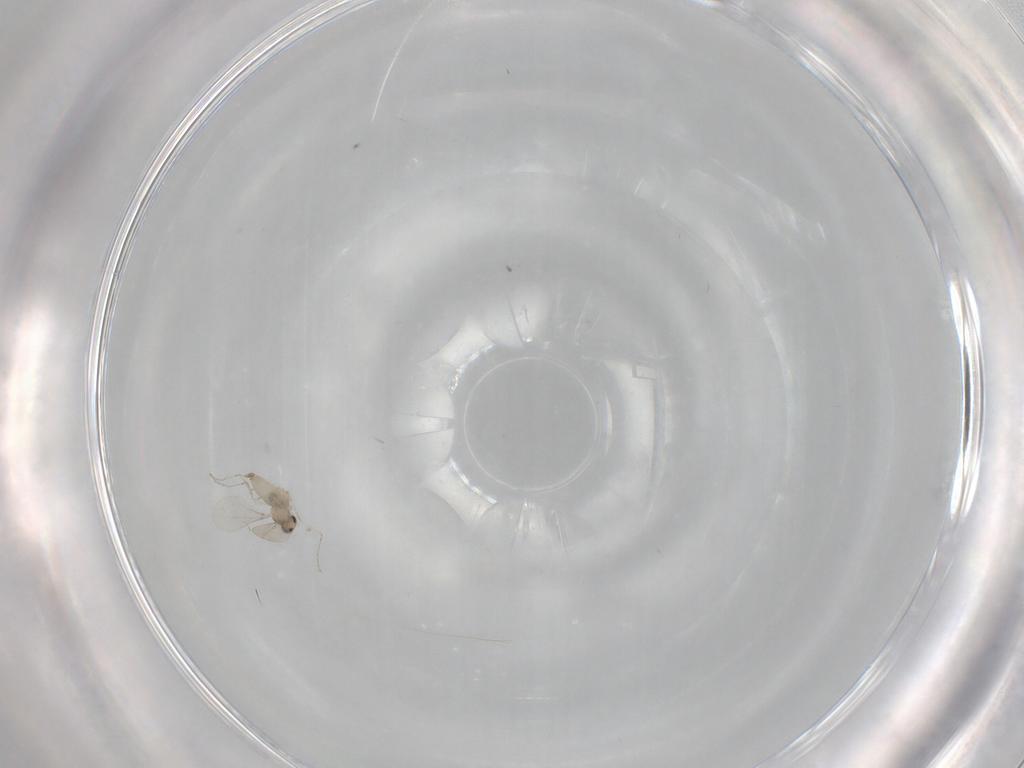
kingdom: Animalia
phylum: Arthropoda
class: Insecta
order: Diptera
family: Cecidomyiidae
